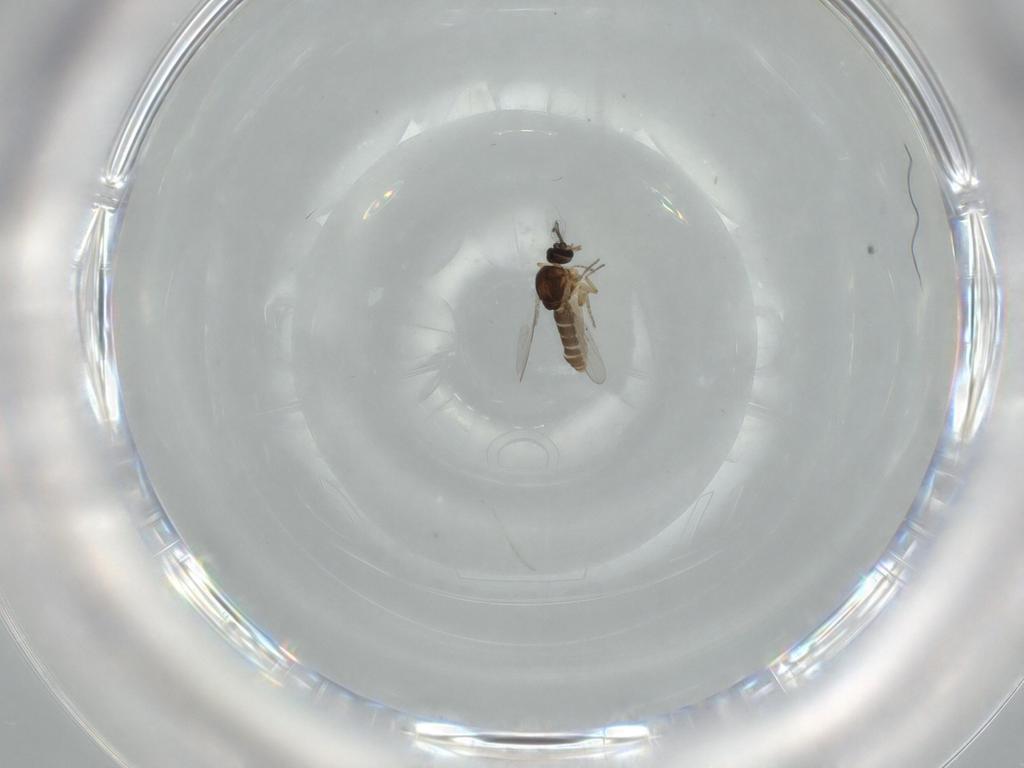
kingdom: Animalia
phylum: Arthropoda
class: Insecta
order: Diptera
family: Ceratopogonidae
